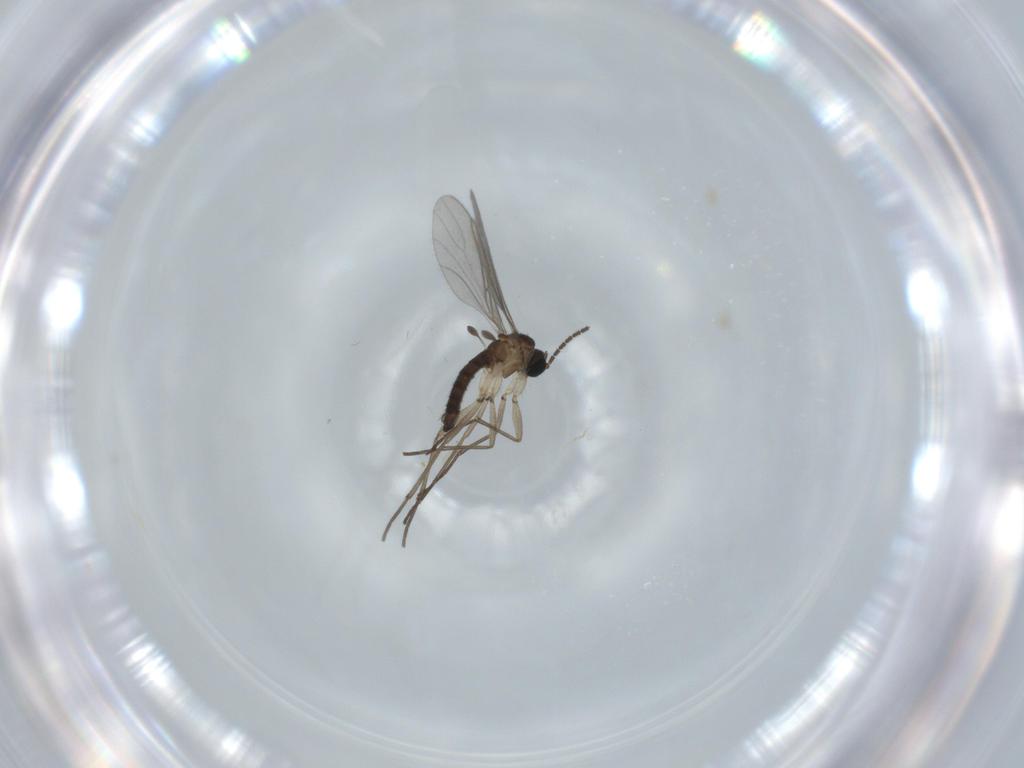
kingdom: Animalia
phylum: Arthropoda
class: Insecta
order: Diptera
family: Sciaridae
